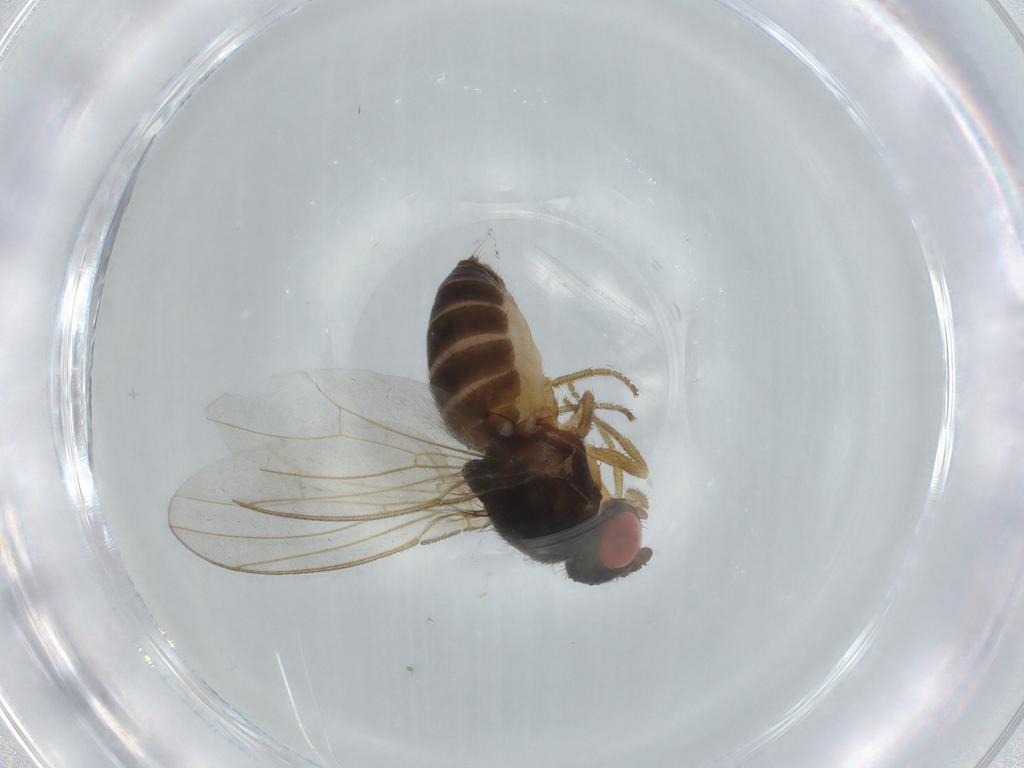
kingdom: Animalia
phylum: Arthropoda
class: Insecta
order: Diptera
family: Drosophilidae
